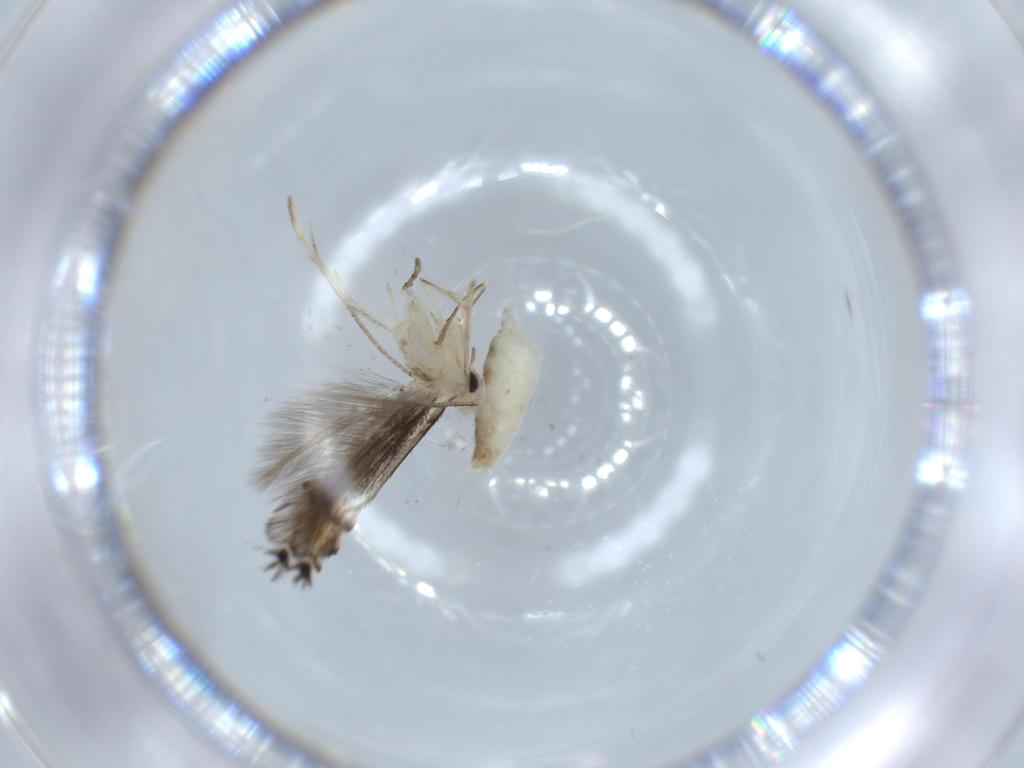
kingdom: Animalia
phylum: Arthropoda
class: Insecta
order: Lepidoptera
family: Gracillariidae
